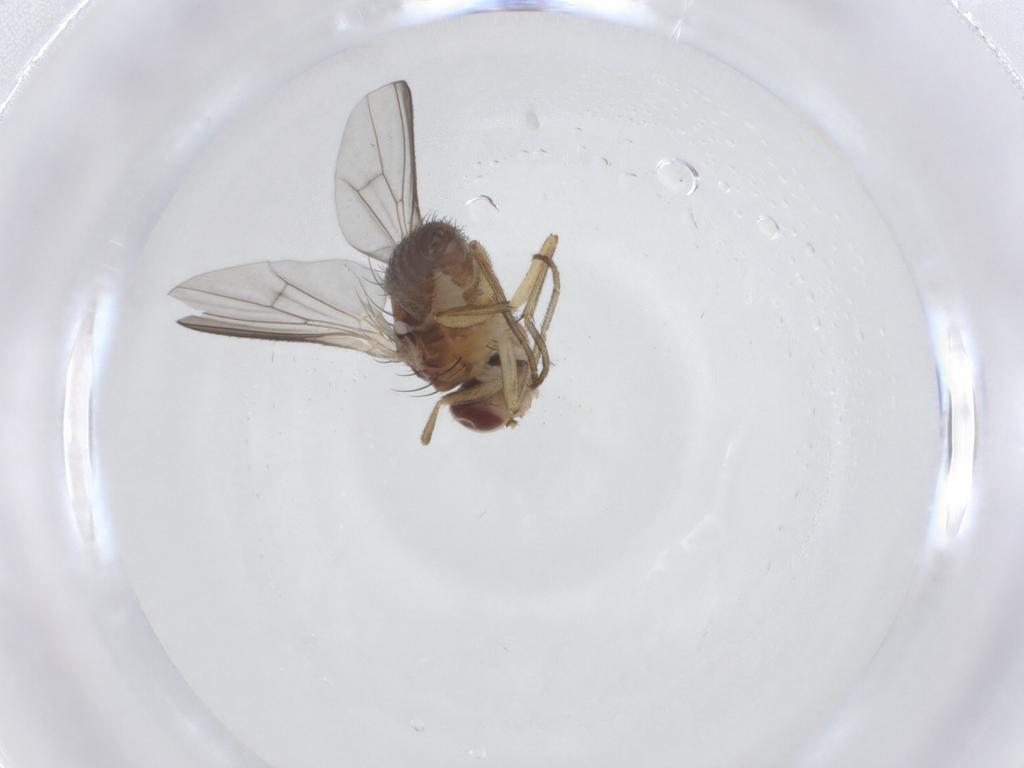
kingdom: Animalia
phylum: Arthropoda
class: Insecta
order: Diptera
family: Heleomyzidae
